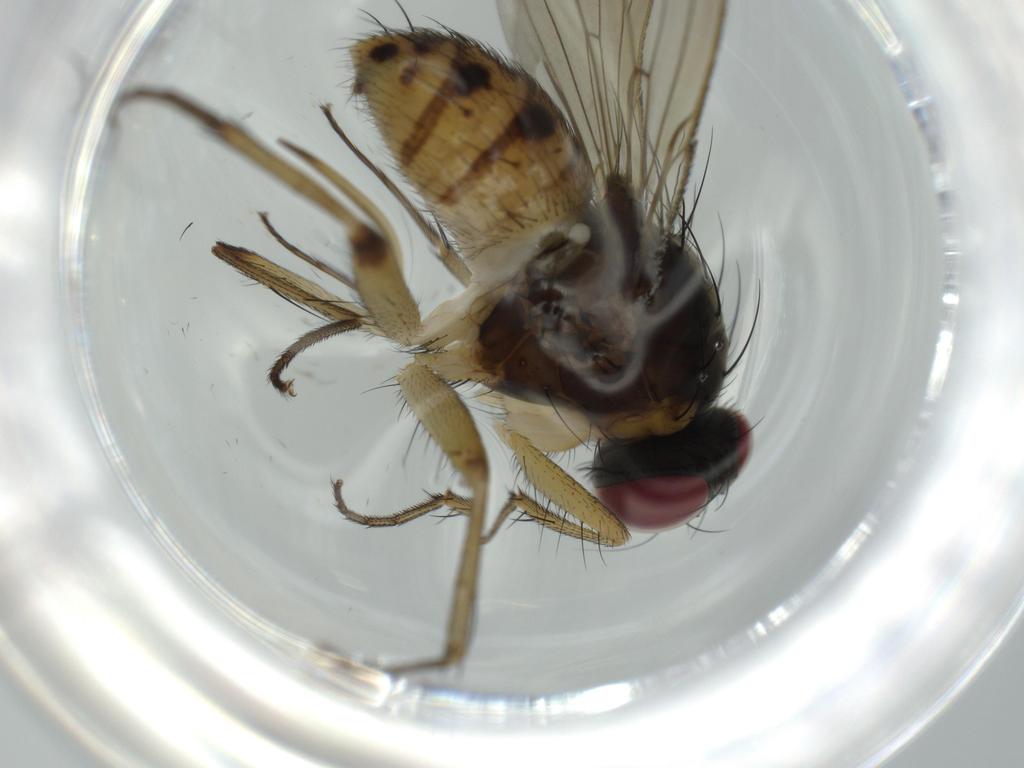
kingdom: Animalia
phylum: Arthropoda
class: Insecta
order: Diptera
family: Muscidae
